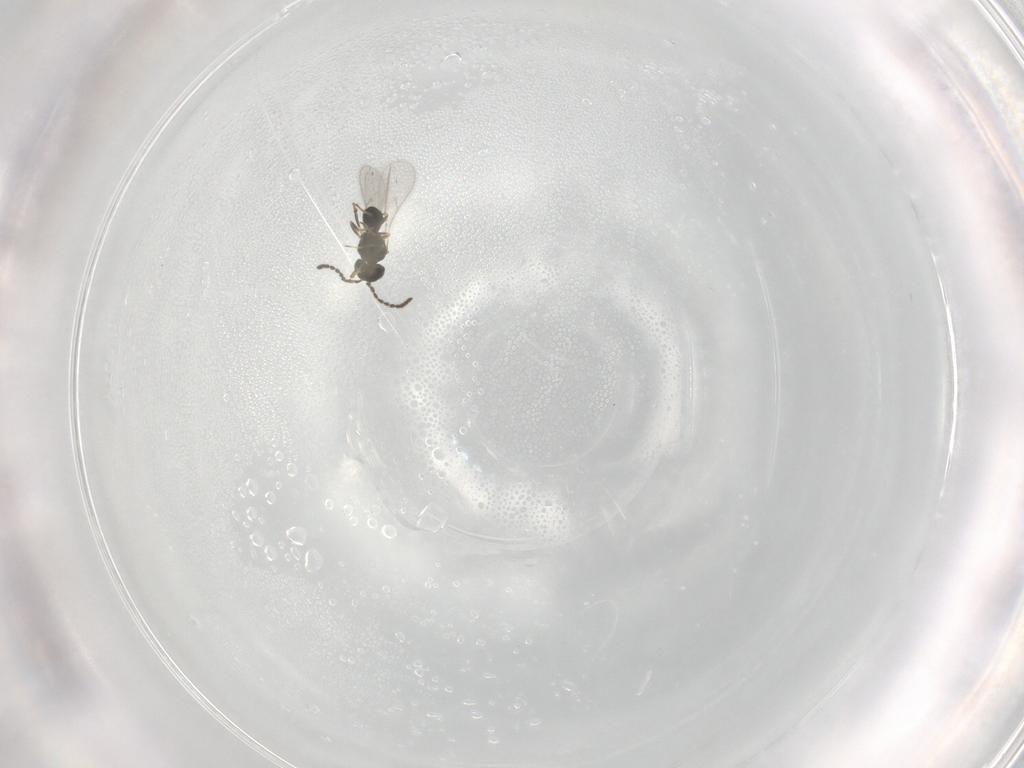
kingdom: Animalia
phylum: Arthropoda
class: Insecta
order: Hymenoptera
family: Scelionidae
